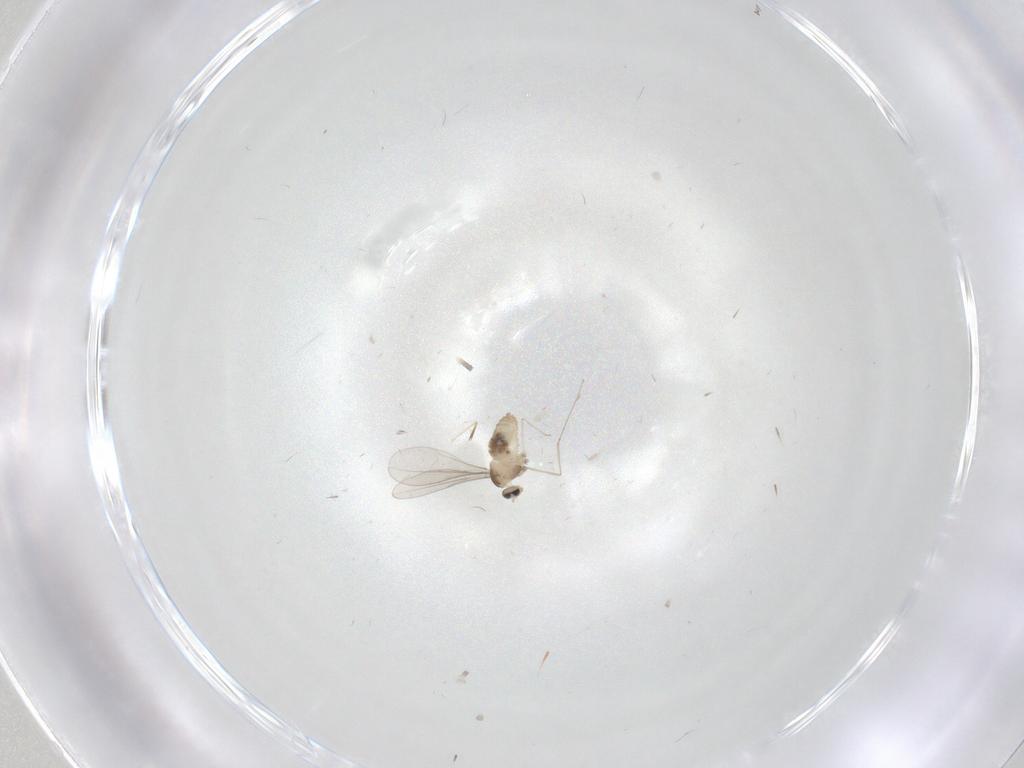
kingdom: Animalia
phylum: Arthropoda
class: Insecta
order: Diptera
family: Cecidomyiidae
